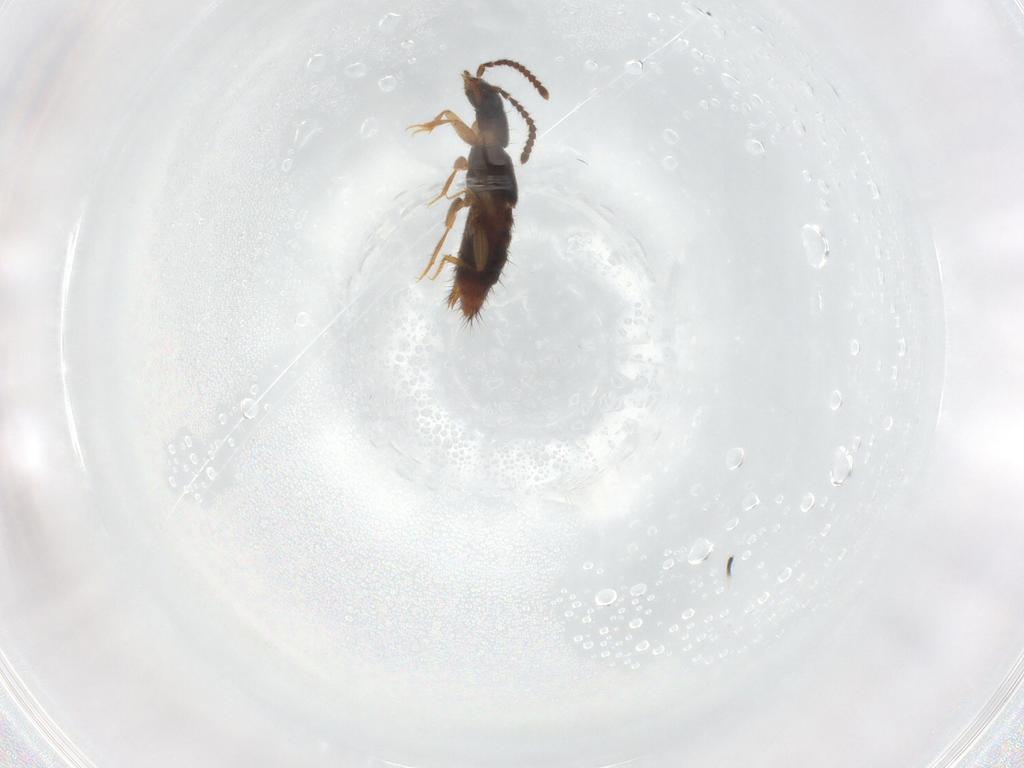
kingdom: Animalia
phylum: Arthropoda
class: Insecta
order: Coleoptera
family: Staphylinidae
